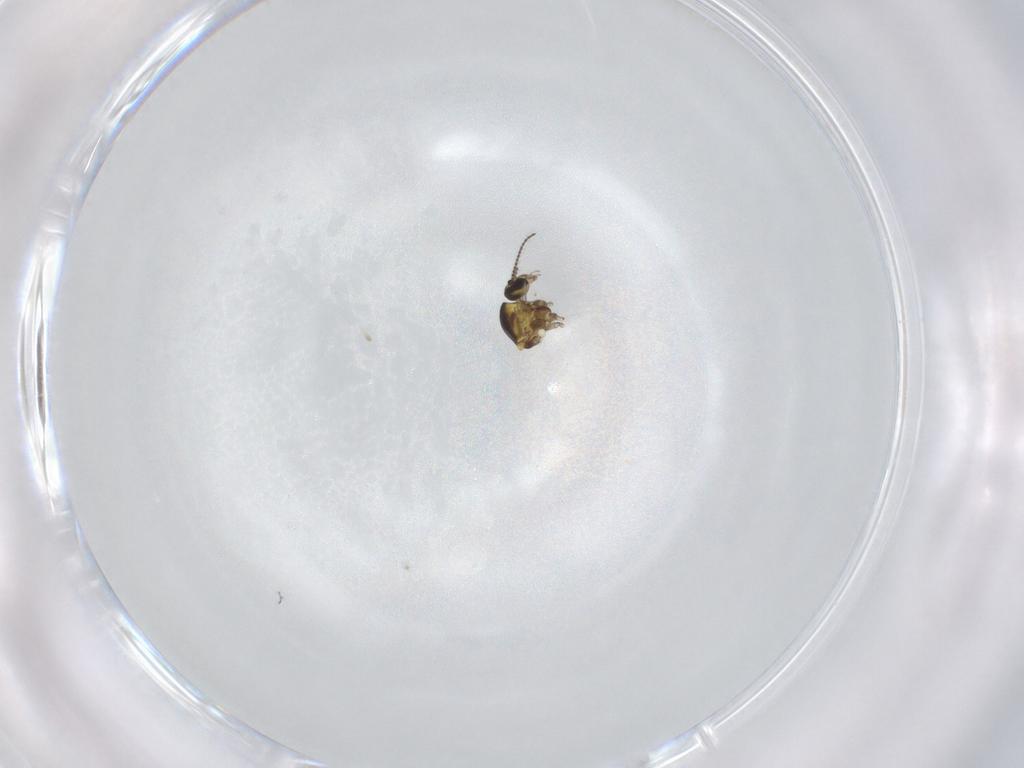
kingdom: Animalia
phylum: Arthropoda
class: Insecta
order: Diptera
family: Ceratopogonidae
